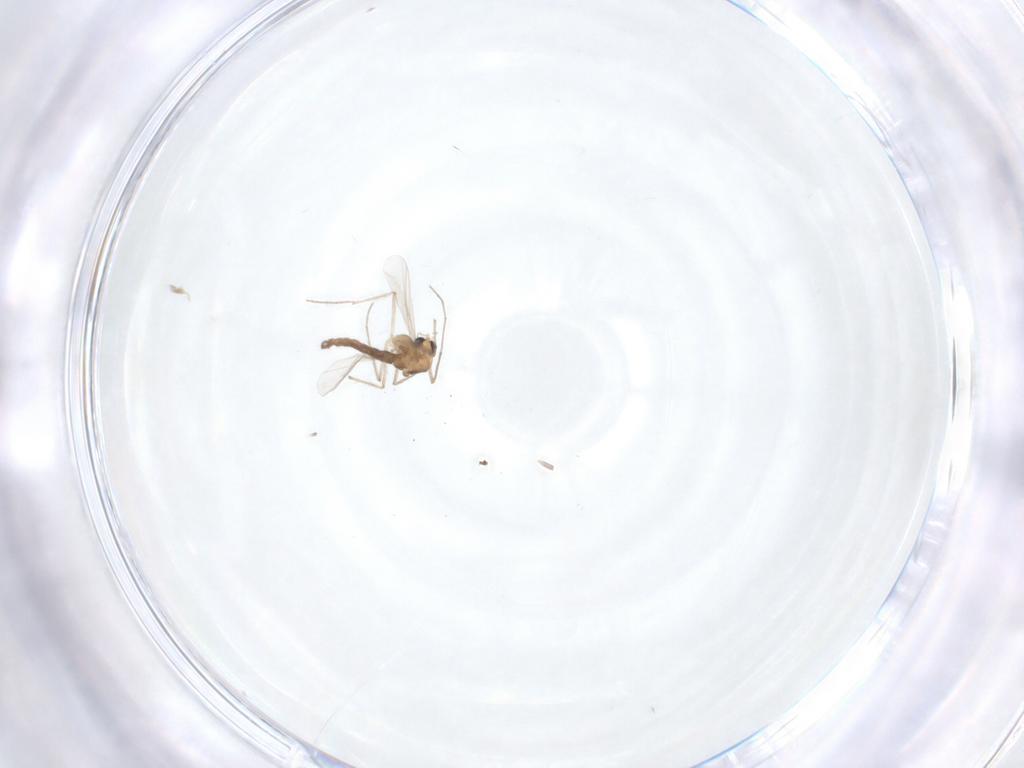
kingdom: Animalia
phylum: Arthropoda
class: Insecta
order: Diptera
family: Chironomidae
